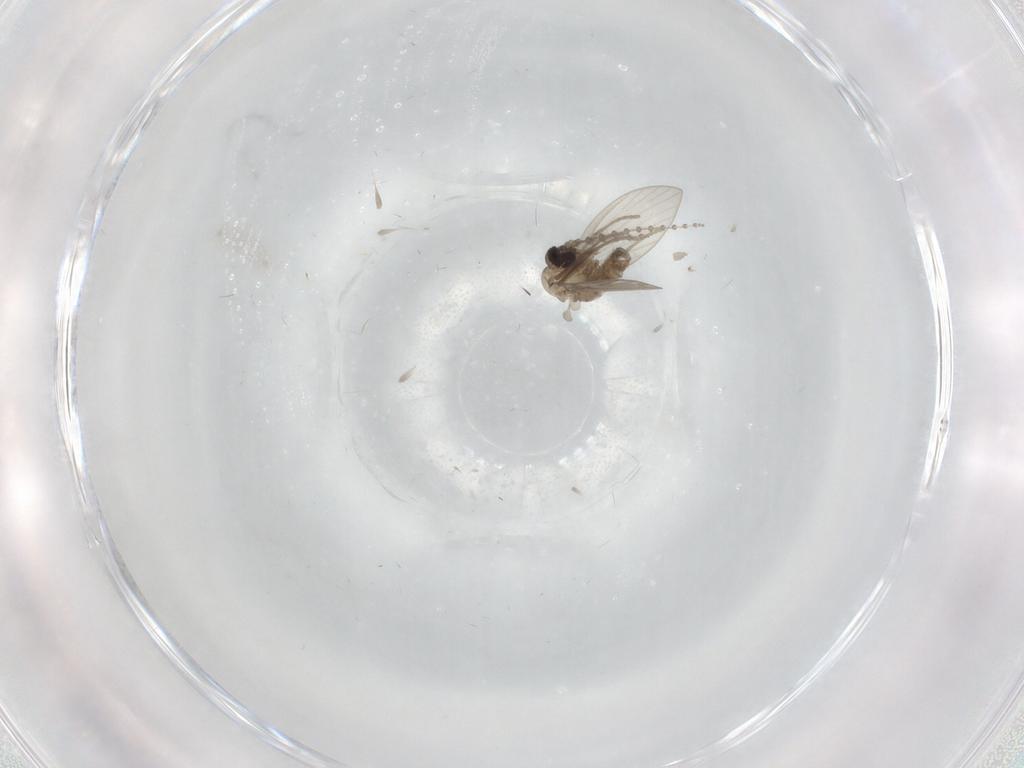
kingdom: Animalia
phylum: Arthropoda
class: Insecta
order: Diptera
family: Psychodidae
